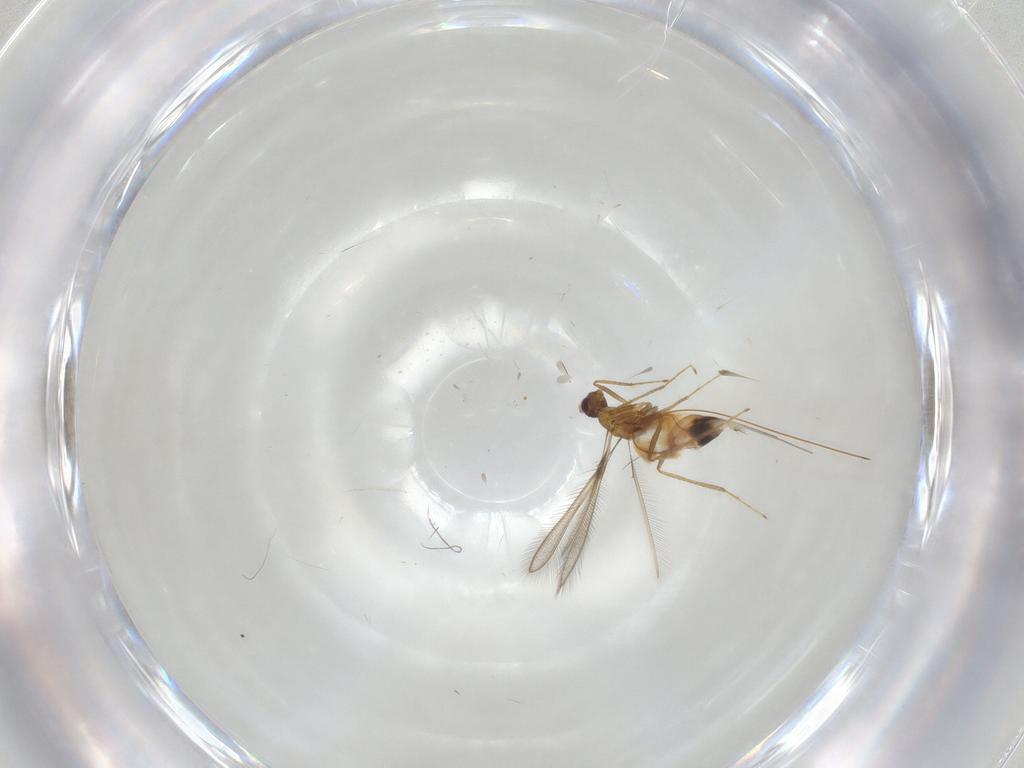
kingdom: Animalia
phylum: Arthropoda
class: Insecta
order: Hymenoptera
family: Mymaridae
